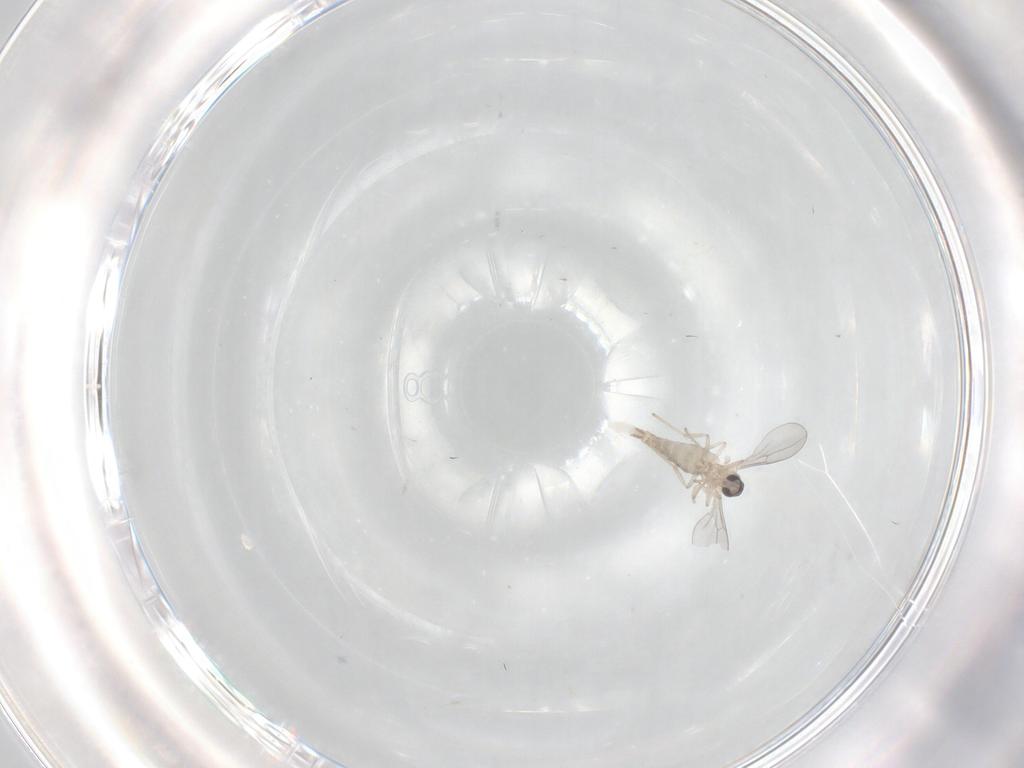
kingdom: Animalia
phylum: Arthropoda
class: Insecta
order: Diptera
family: Cecidomyiidae
